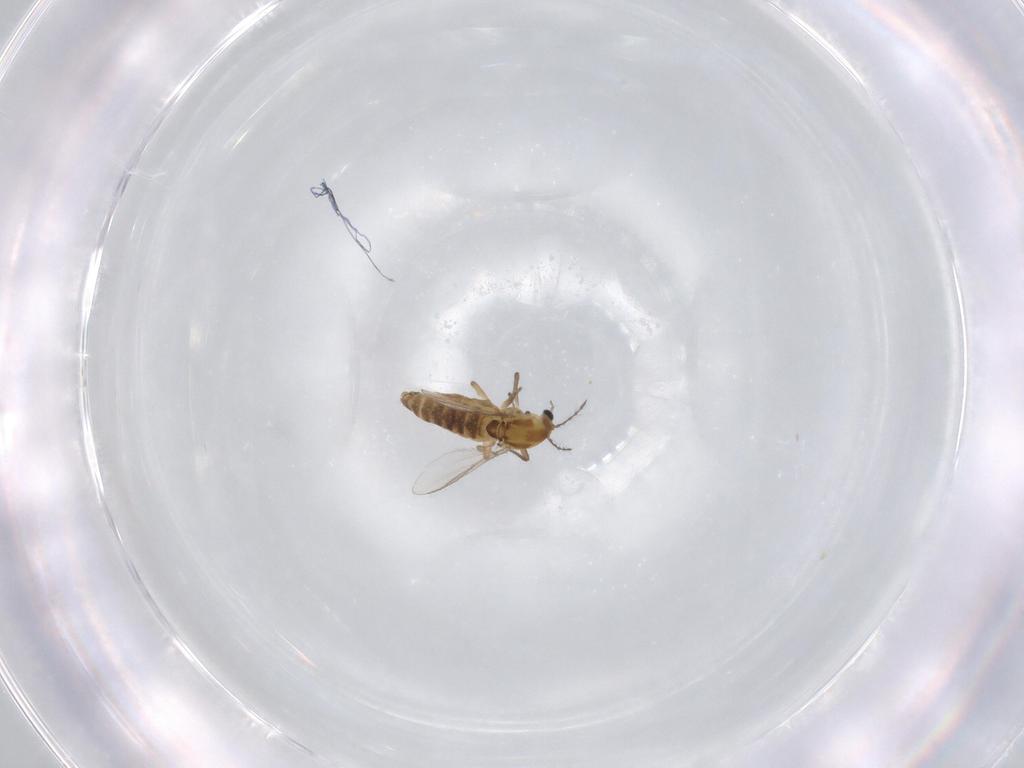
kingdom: Animalia
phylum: Arthropoda
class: Insecta
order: Diptera
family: Chironomidae
